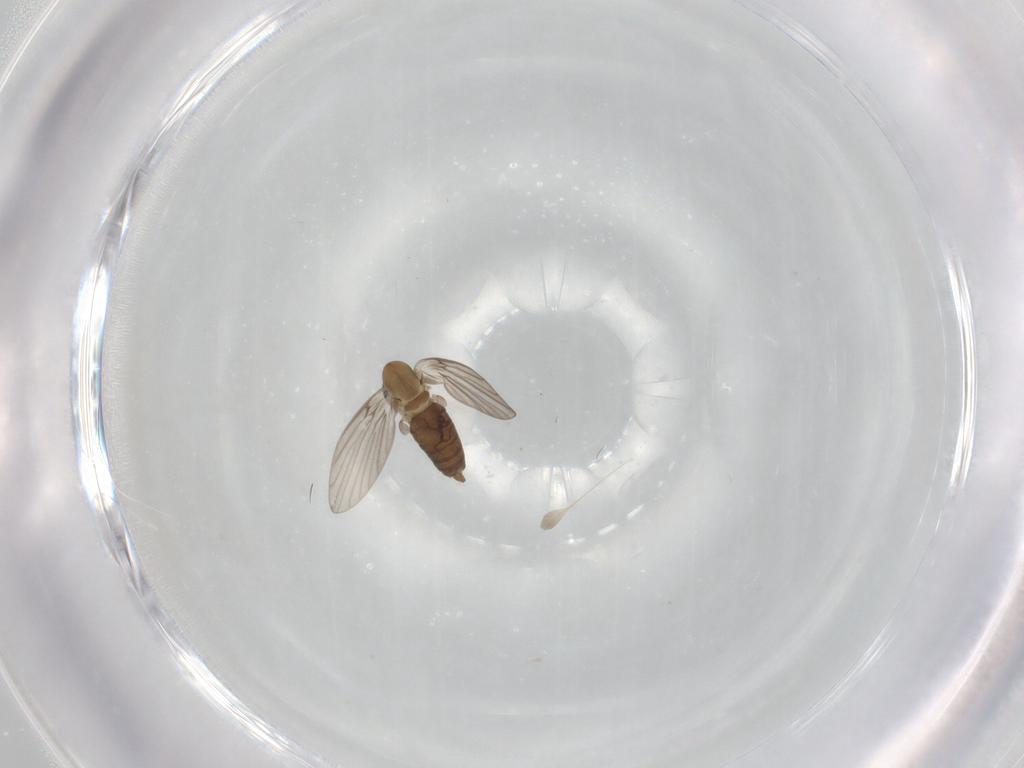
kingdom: Animalia
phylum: Arthropoda
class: Insecta
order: Diptera
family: Psychodidae
